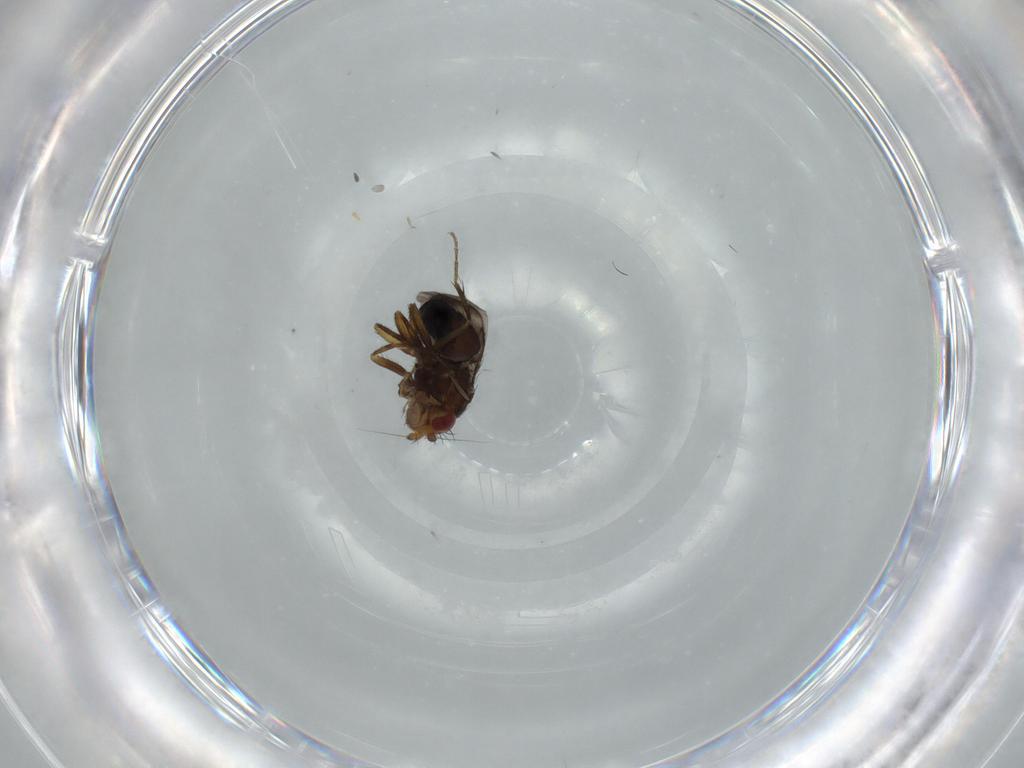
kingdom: Animalia
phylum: Arthropoda
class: Insecta
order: Diptera
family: Sphaeroceridae
